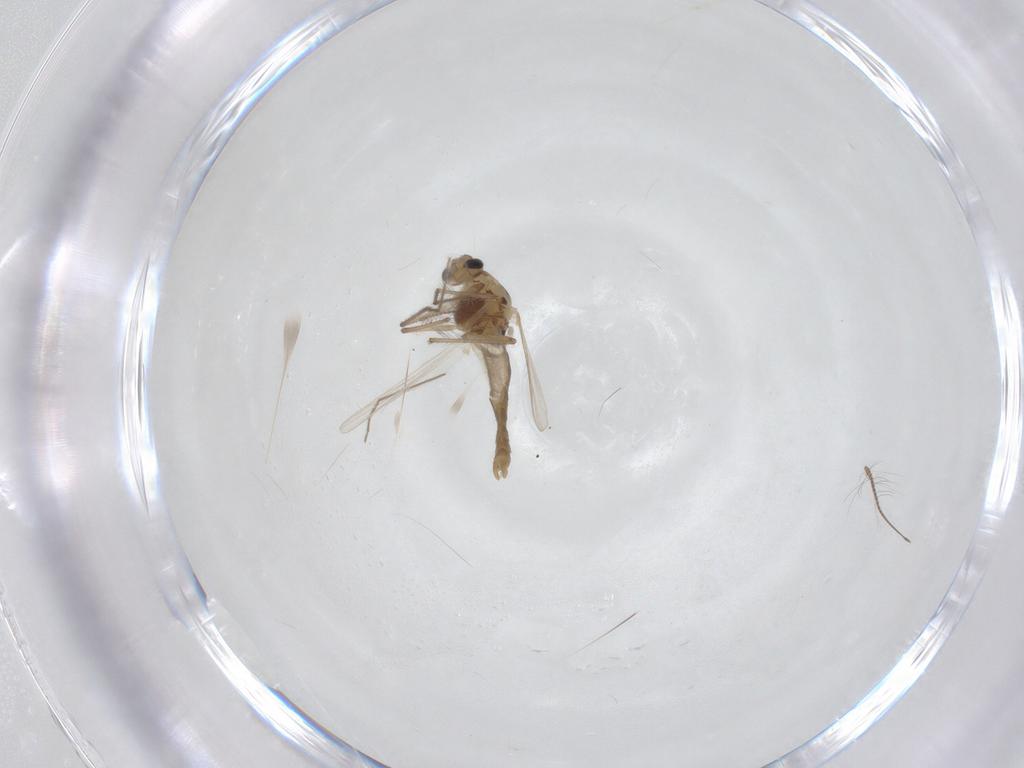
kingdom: Animalia
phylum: Arthropoda
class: Insecta
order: Diptera
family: Chironomidae
